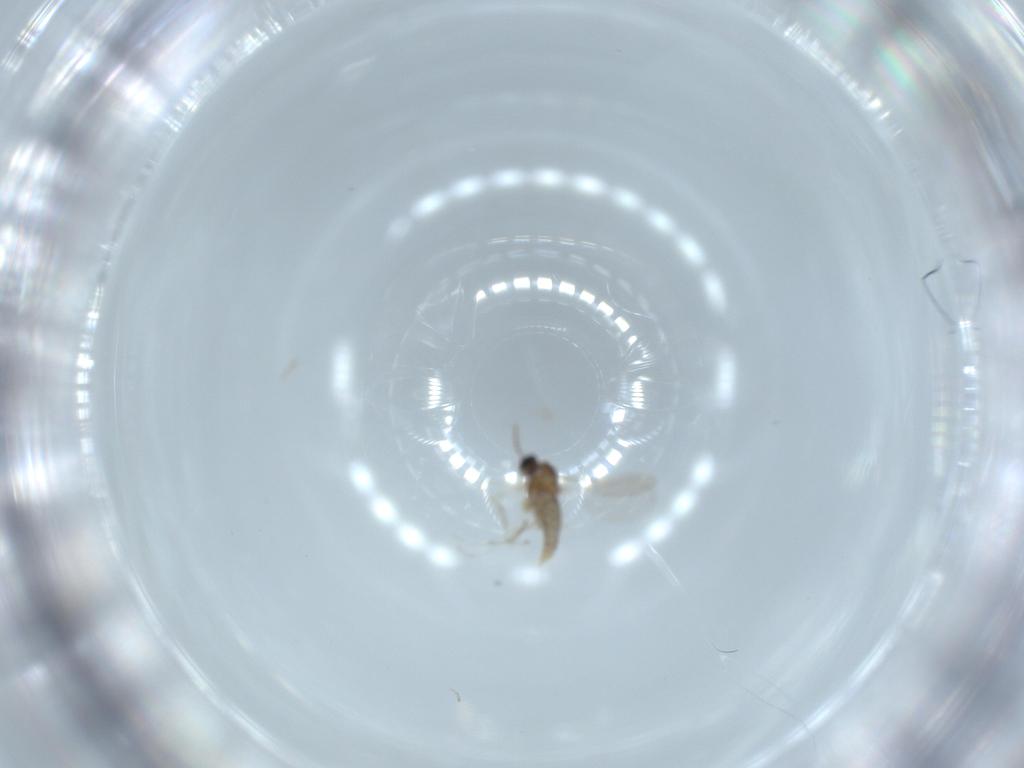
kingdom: Animalia
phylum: Arthropoda
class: Insecta
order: Diptera
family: Cecidomyiidae
